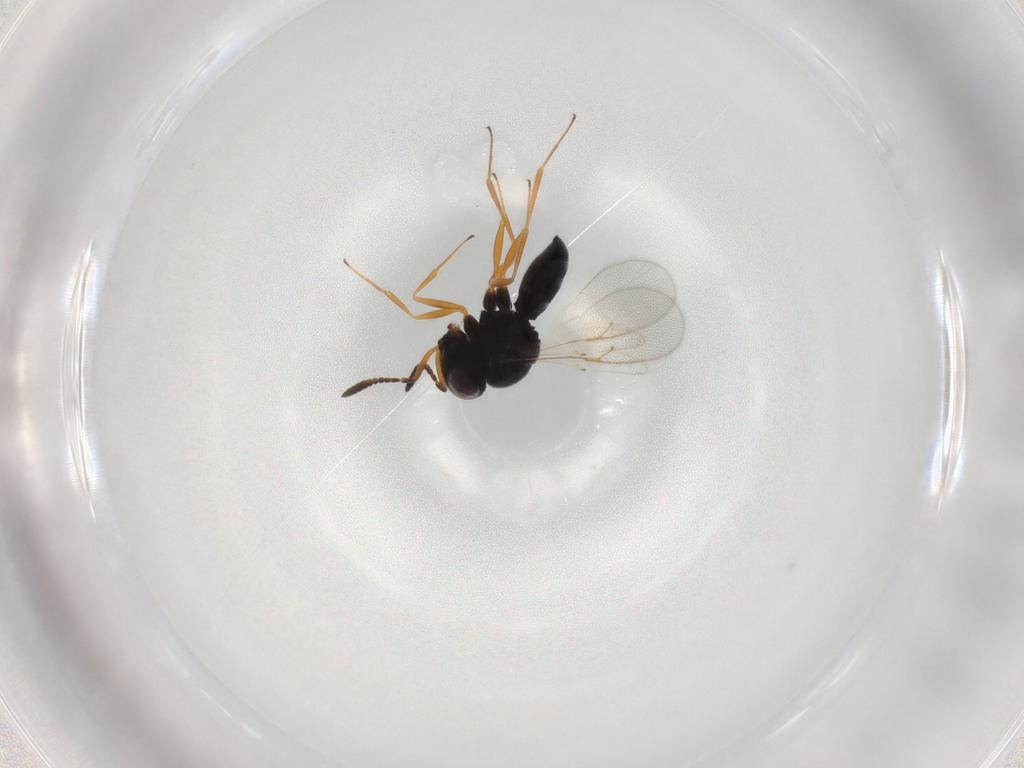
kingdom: Animalia
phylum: Arthropoda
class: Insecta
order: Hymenoptera
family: Scelionidae
